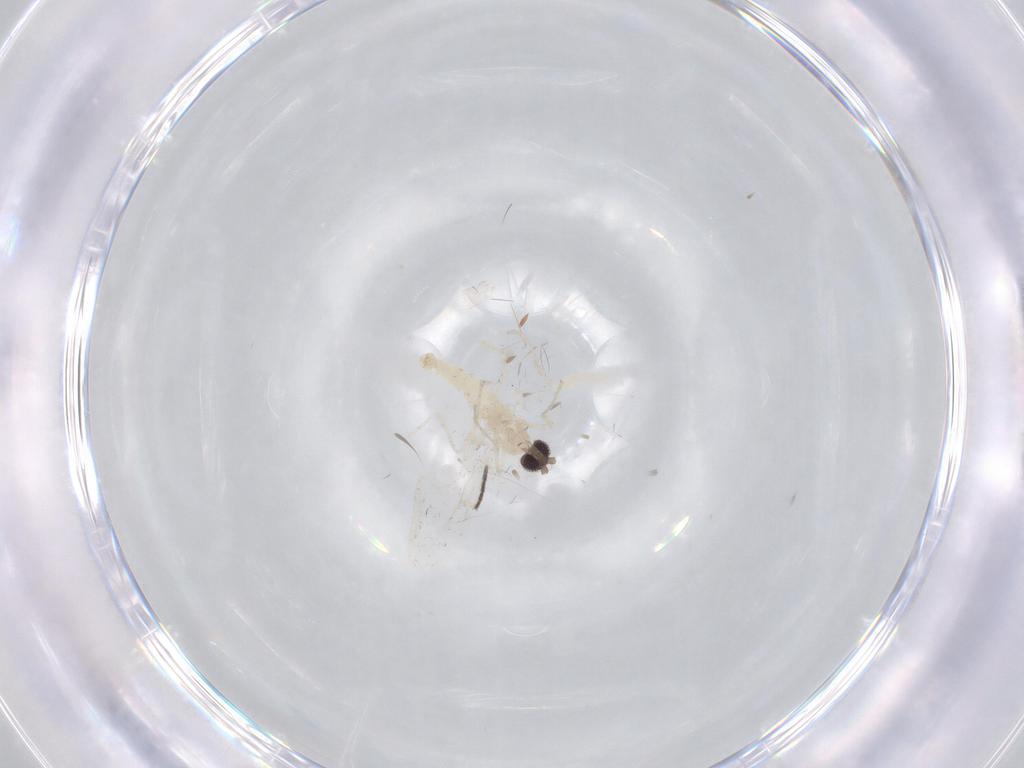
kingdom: Animalia
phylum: Arthropoda
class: Insecta
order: Diptera
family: Cecidomyiidae
